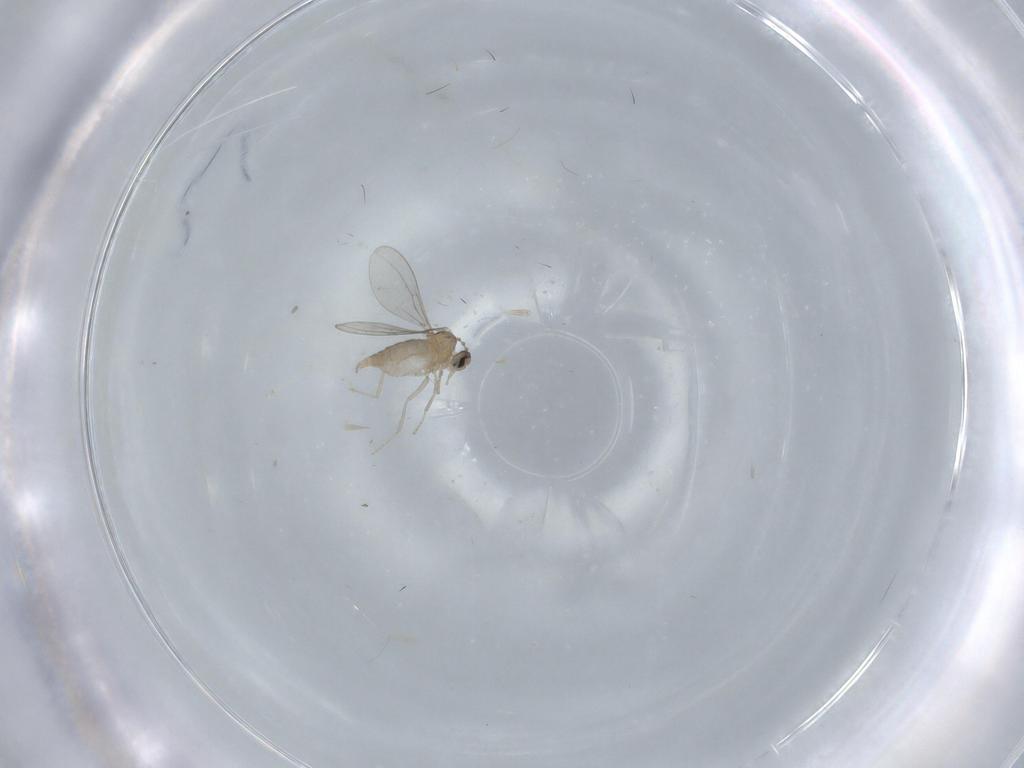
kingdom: Animalia
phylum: Arthropoda
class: Insecta
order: Diptera
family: Cecidomyiidae
